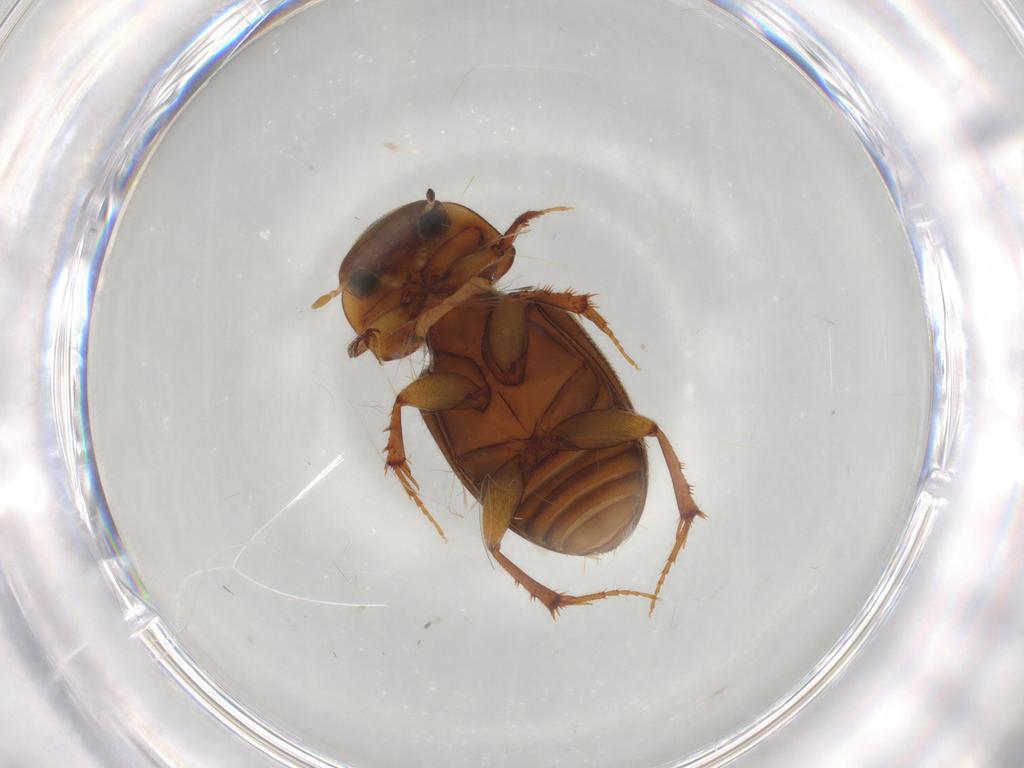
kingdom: Animalia
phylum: Arthropoda
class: Insecta
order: Coleoptera
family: Scarabaeidae
